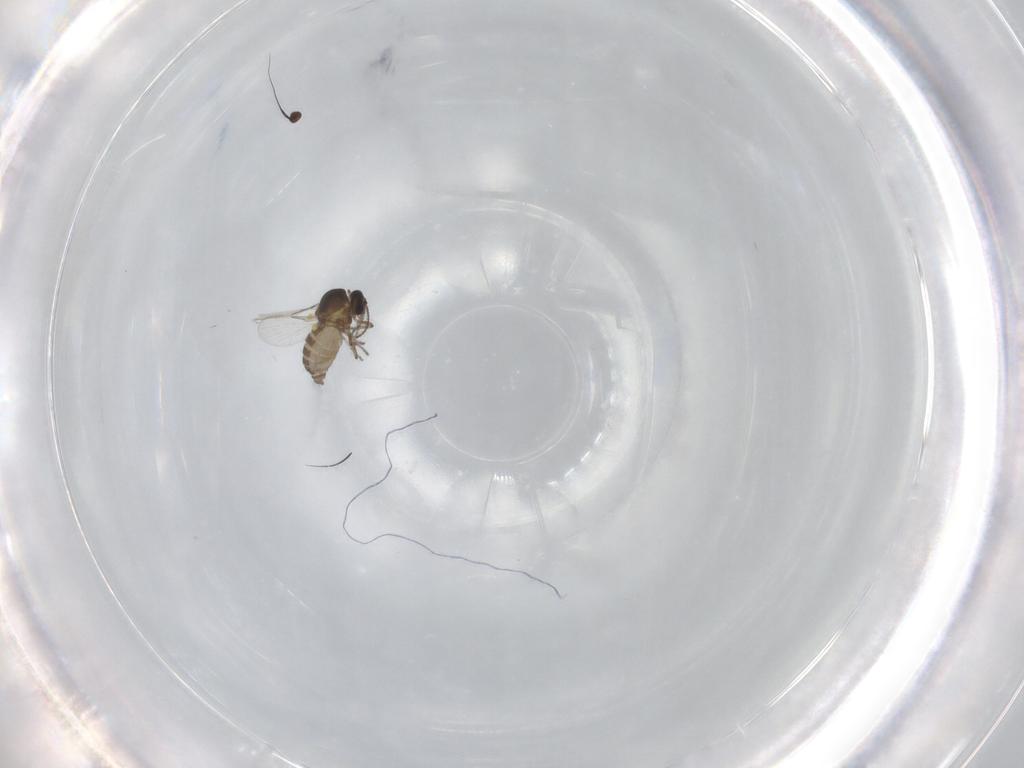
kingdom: Animalia
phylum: Arthropoda
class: Insecta
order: Diptera
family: Ceratopogonidae
